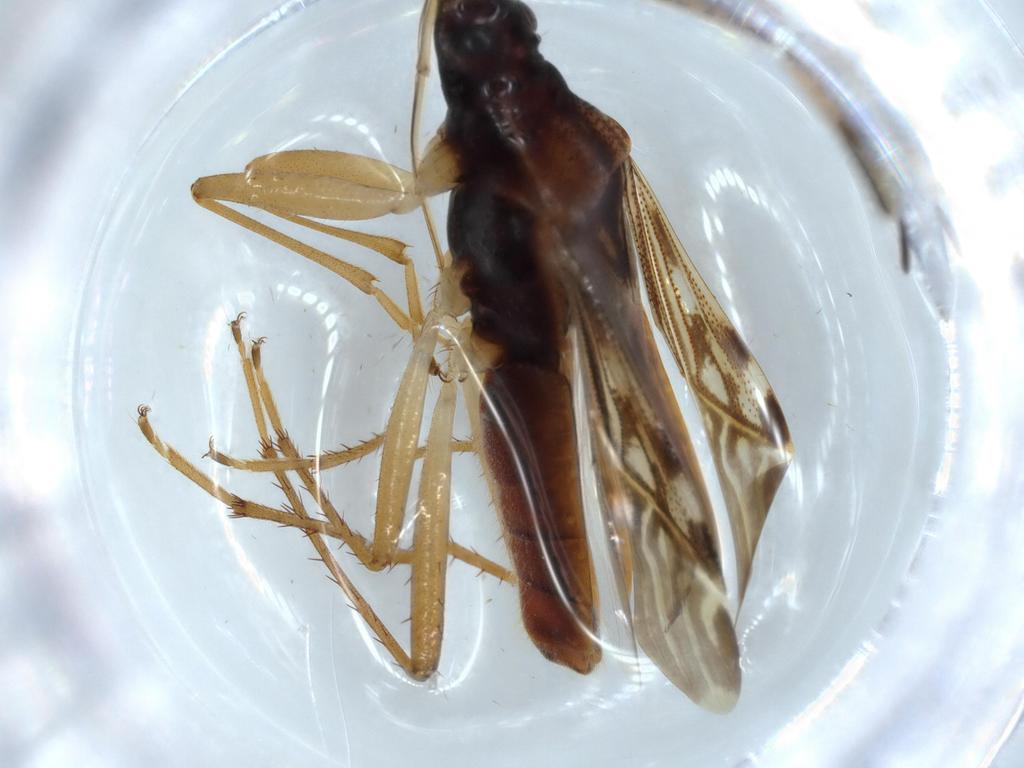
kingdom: Animalia
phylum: Arthropoda
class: Insecta
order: Hemiptera
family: Rhyparochromidae
